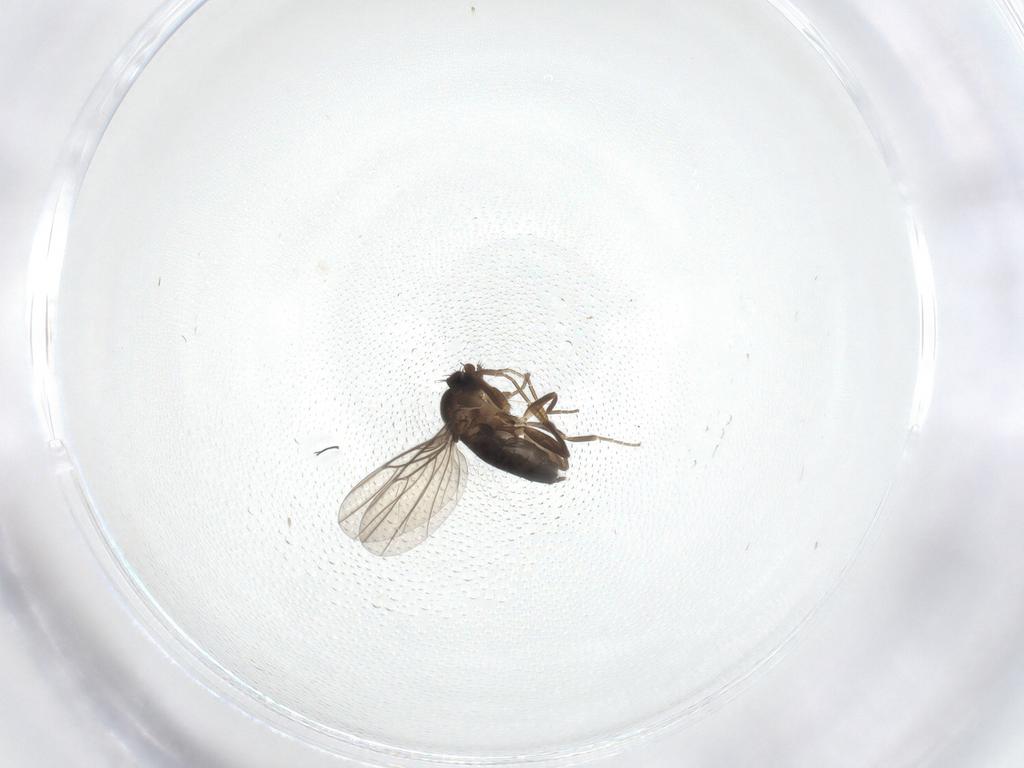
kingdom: Animalia
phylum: Arthropoda
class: Insecta
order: Diptera
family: Phoridae
